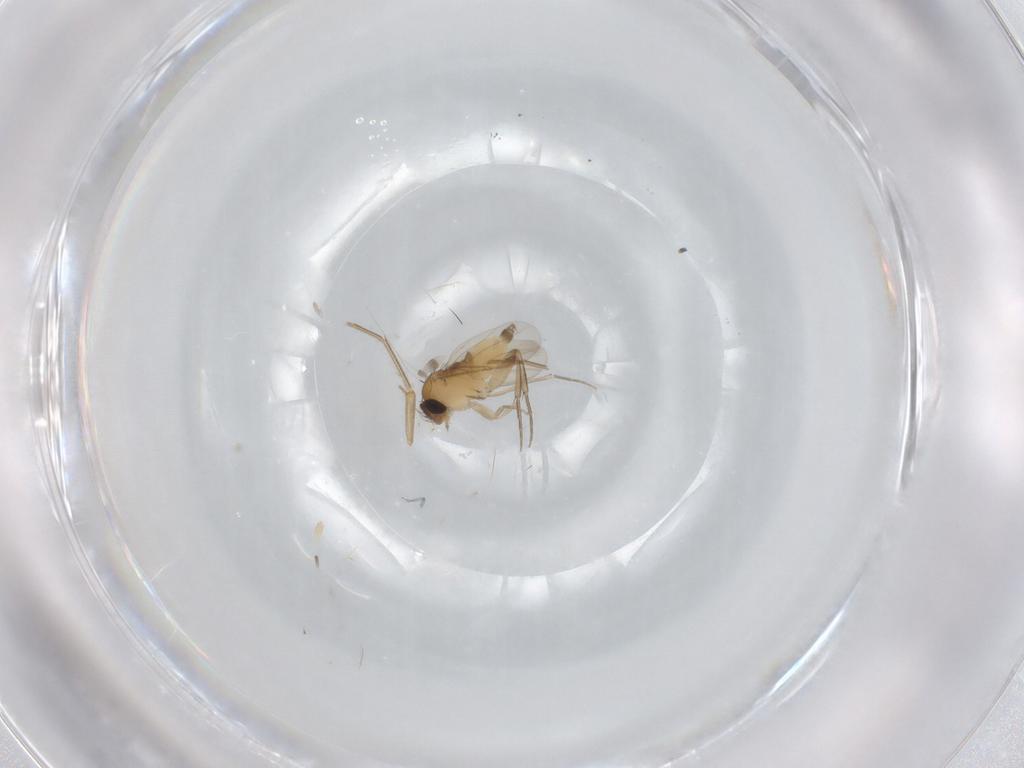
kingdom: Animalia
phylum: Arthropoda
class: Insecta
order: Diptera
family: Phoridae
